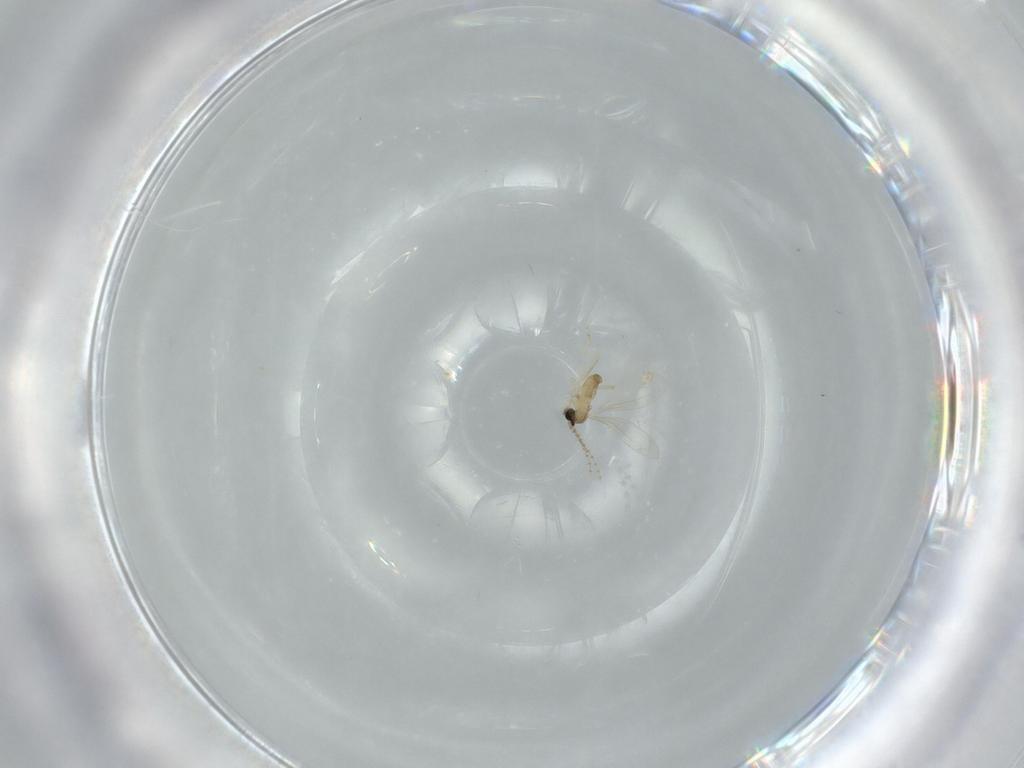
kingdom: Animalia
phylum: Arthropoda
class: Insecta
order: Diptera
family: Cecidomyiidae
